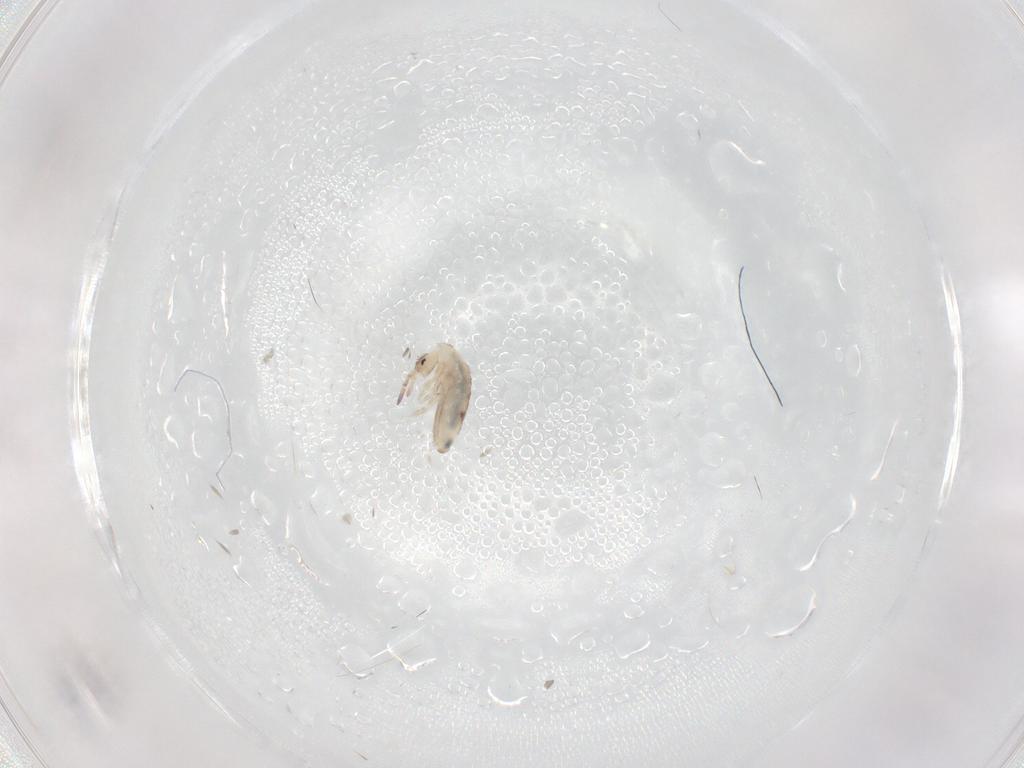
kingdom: Animalia
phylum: Arthropoda
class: Collembola
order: Entomobryomorpha
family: Entomobryidae
